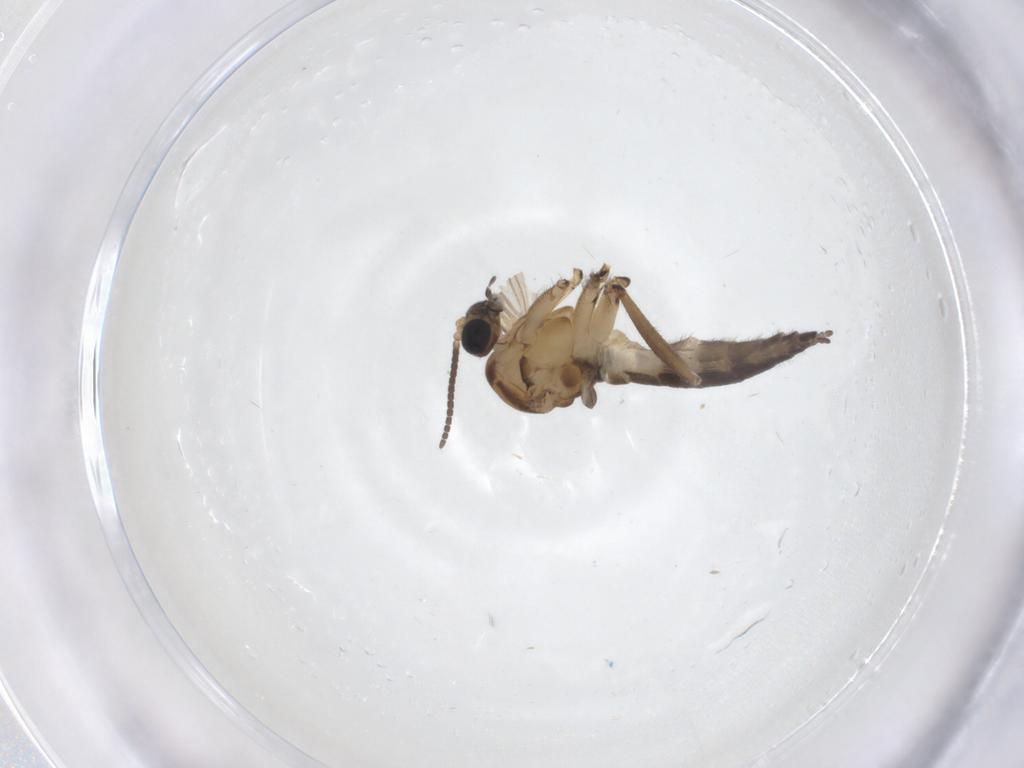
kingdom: Animalia
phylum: Arthropoda
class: Insecta
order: Diptera
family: Sciaridae
